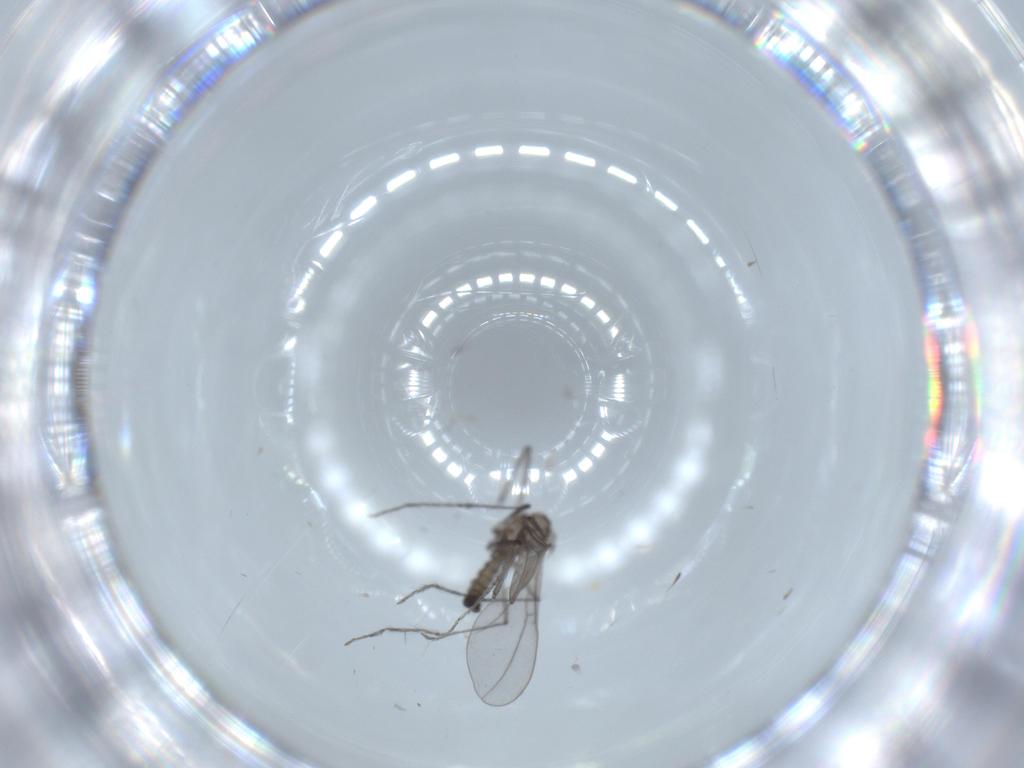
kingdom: Animalia
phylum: Arthropoda
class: Insecta
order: Diptera
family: Cecidomyiidae
